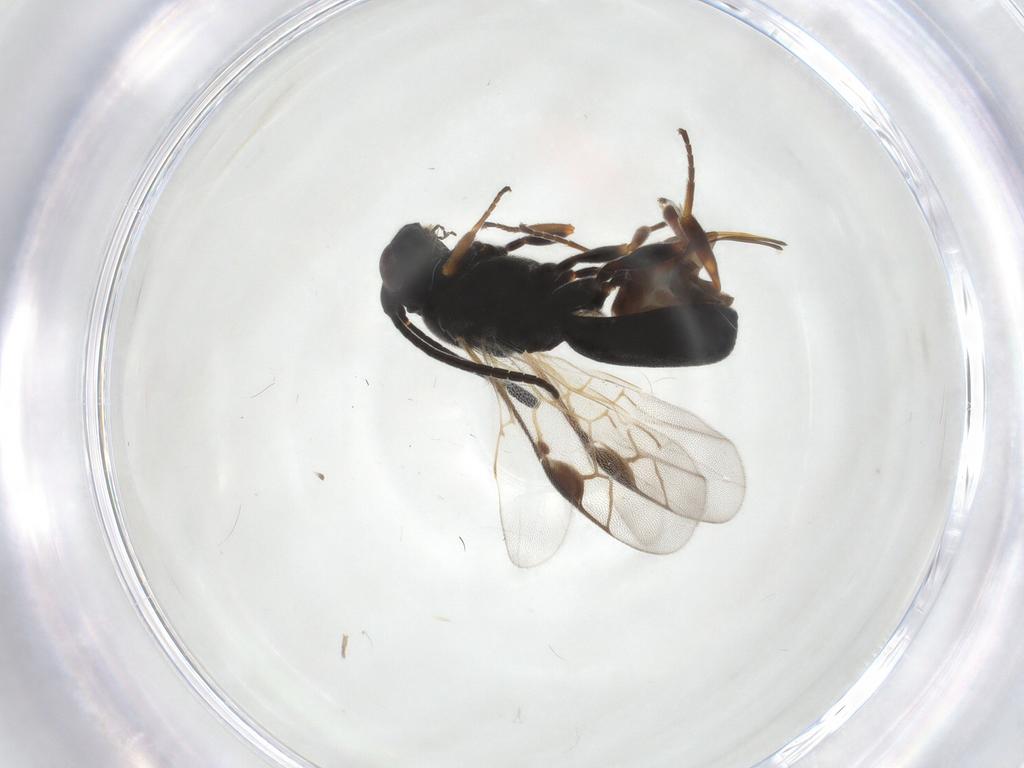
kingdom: Animalia
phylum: Arthropoda
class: Insecta
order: Hymenoptera
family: Braconidae
